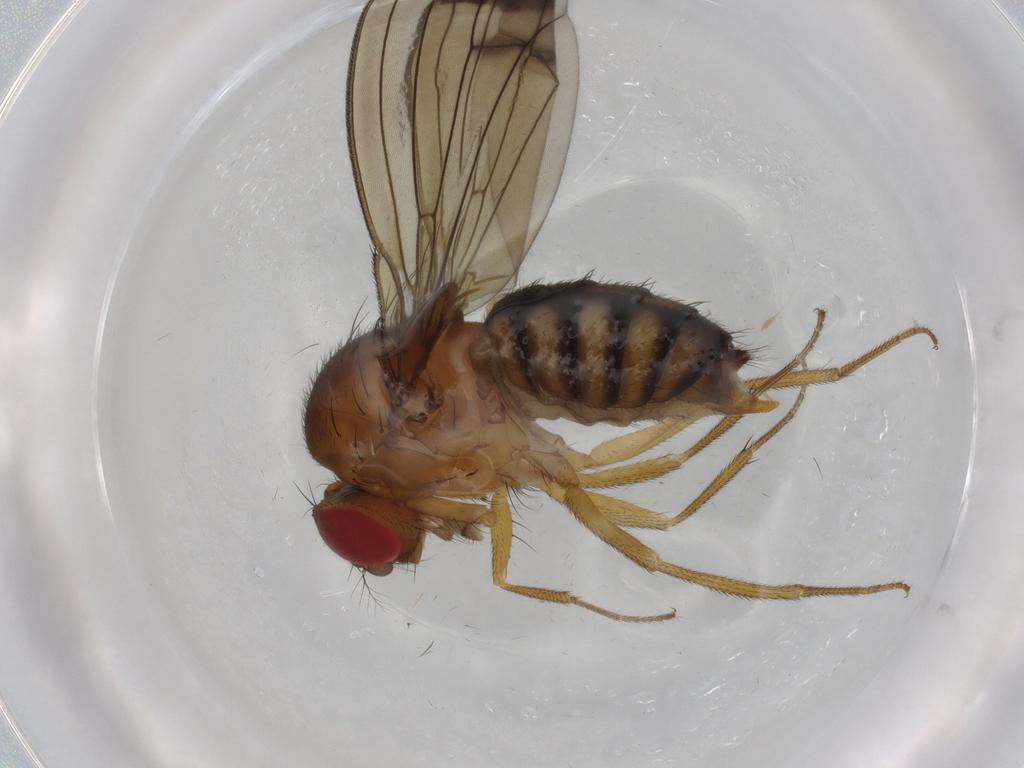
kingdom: Animalia
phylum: Arthropoda
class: Insecta
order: Diptera
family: Drosophilidae
